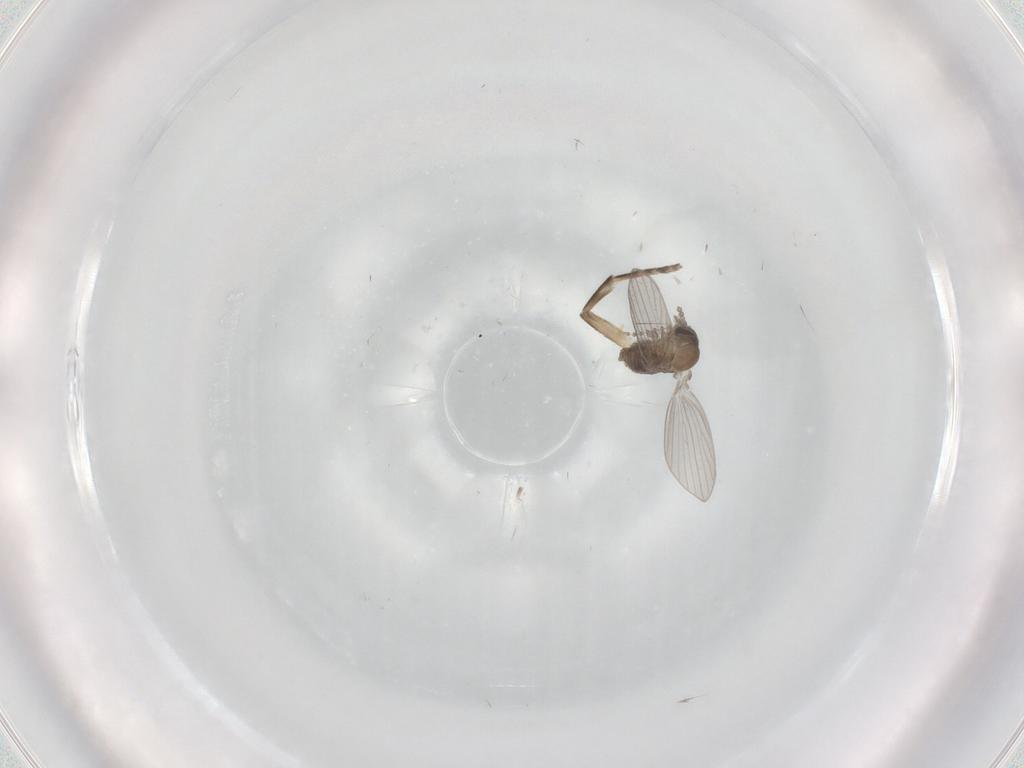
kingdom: Animalia
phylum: Arthropoda
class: Insecta
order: Diptera
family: Psychodidae
